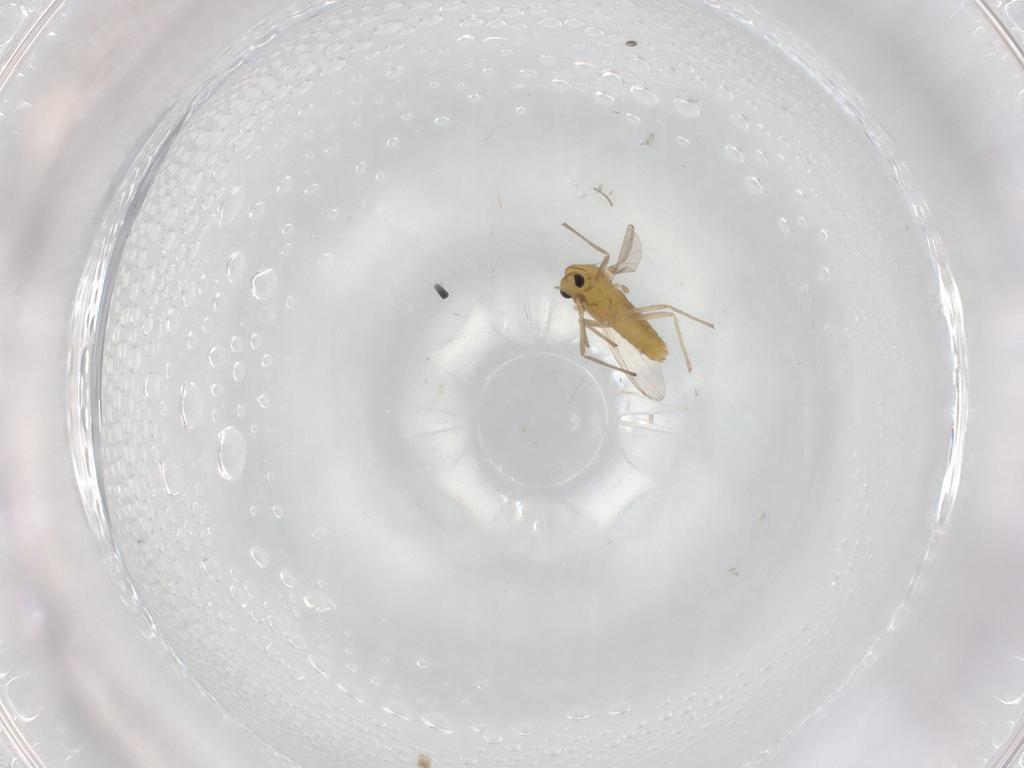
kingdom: Animalia
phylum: Arthropoda
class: Insecta
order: Diptera
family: Chironomidae
